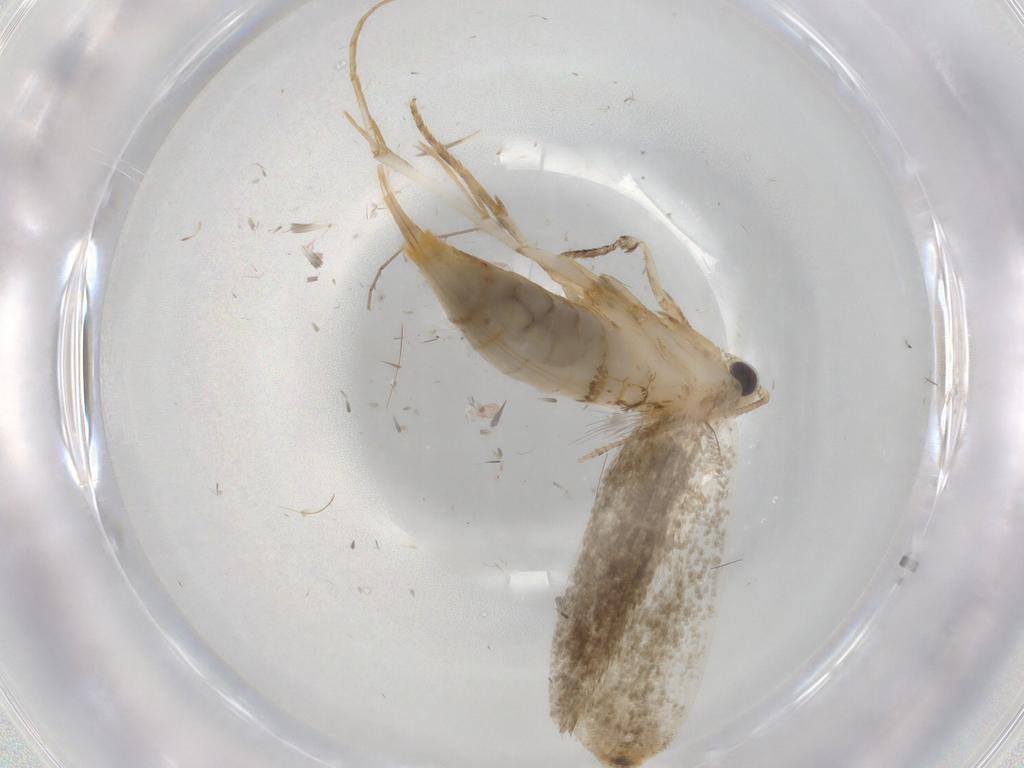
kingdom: Animalia
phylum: Arthropoda
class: Insecta
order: Lepidoptera
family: Tineidae
